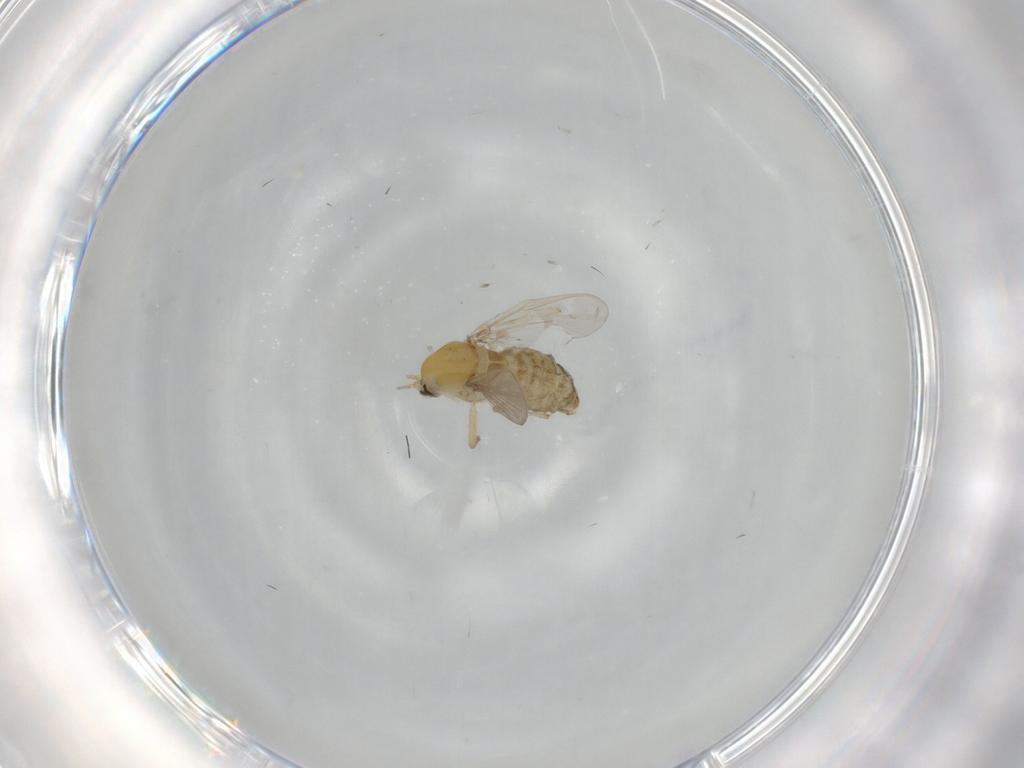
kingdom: Animalia
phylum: Arthropoda
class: Insecta
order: Diptera
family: Chironomidae
